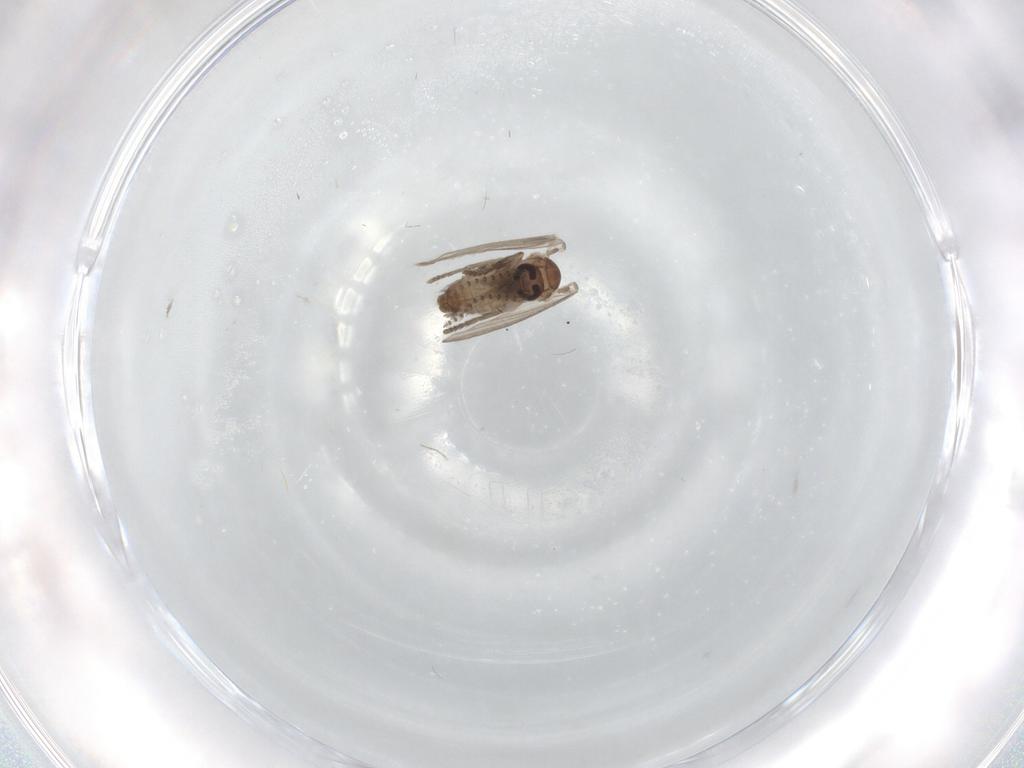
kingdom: Animalia
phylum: Arthropoda
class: Insecta
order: Diptera
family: Psychodidae
